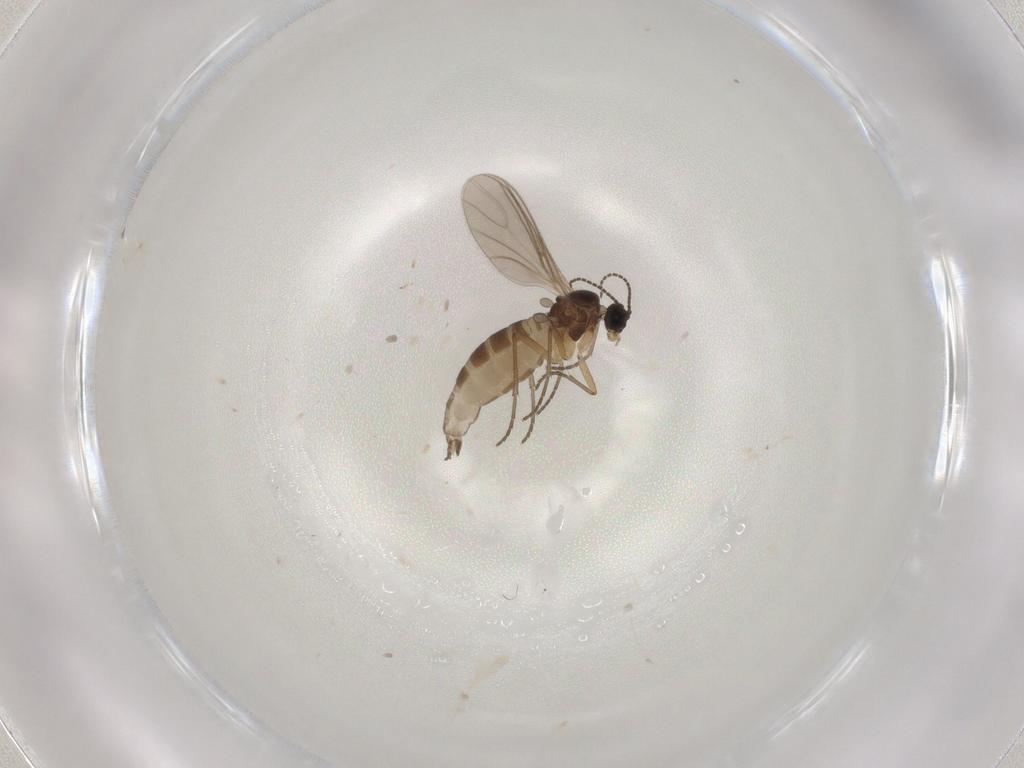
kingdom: Animalia
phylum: Arthropoda
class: Insecta
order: Diptera
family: Sciaridae
